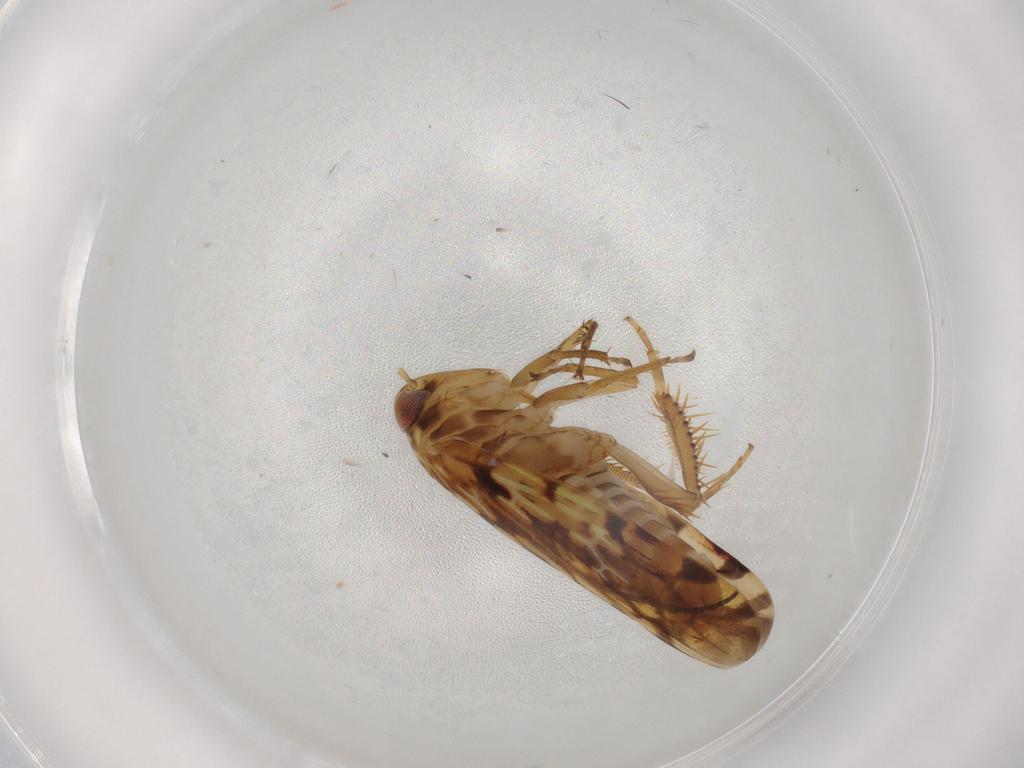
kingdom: Animalia
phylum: Arthropoda
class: Insecta
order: Hemiptera
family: Cicadellidae
